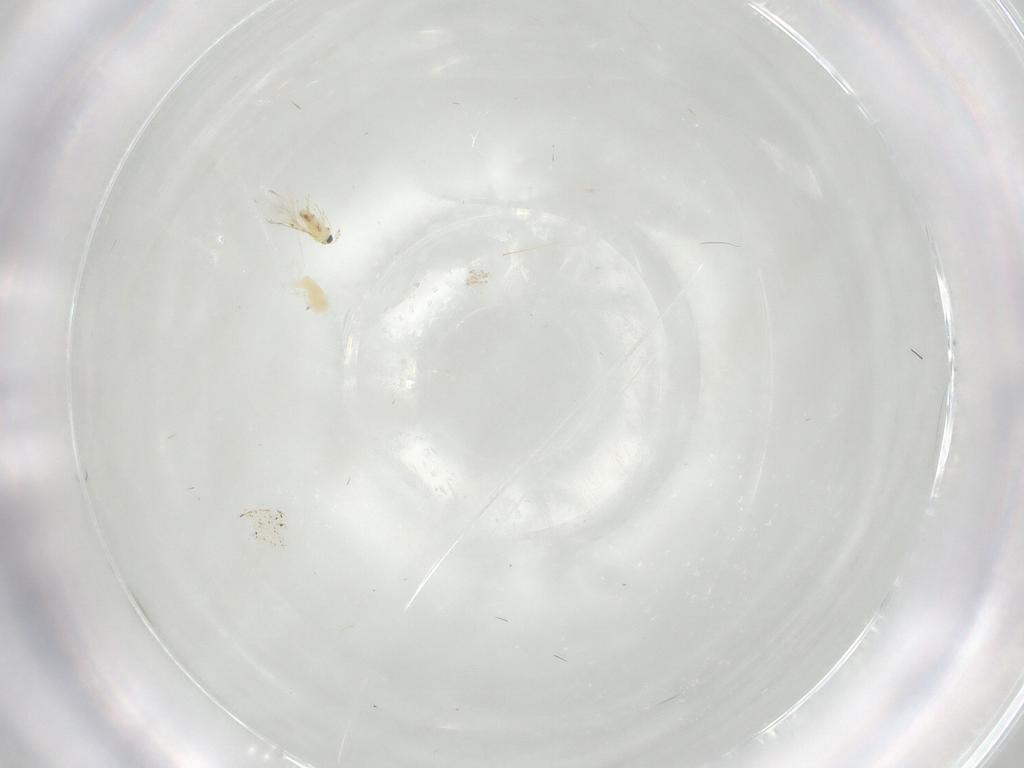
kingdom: Animalia
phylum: Arthropoda
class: Arachnida
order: Trombidiformes
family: Eupodidae
